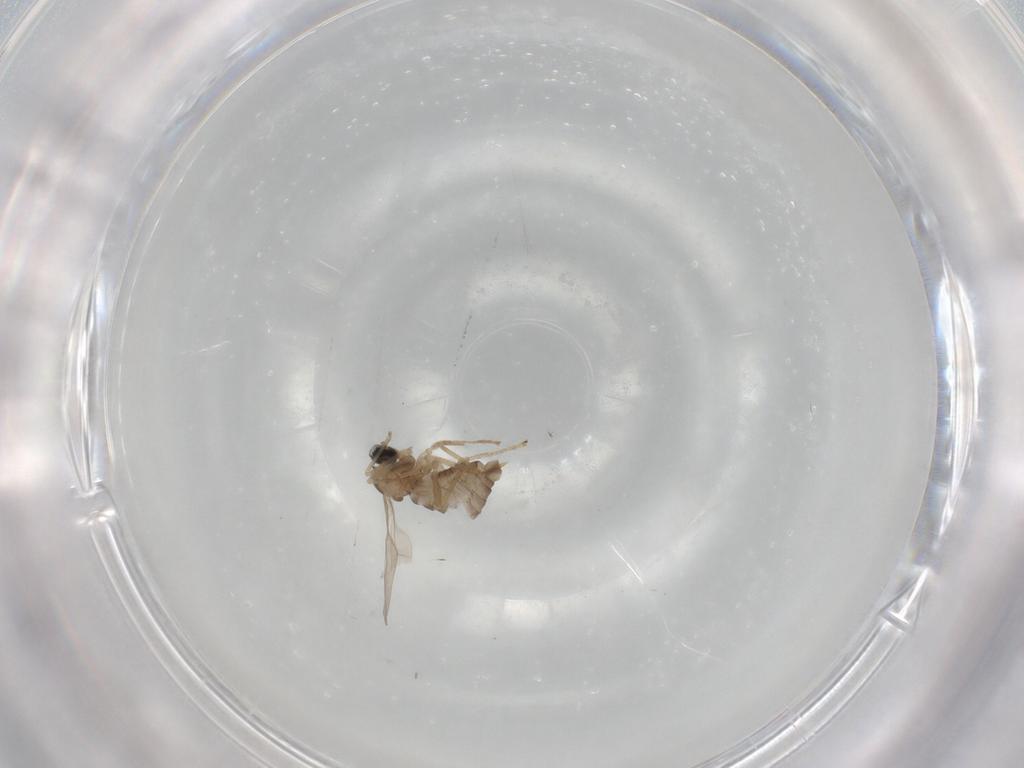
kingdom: Animalia
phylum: Arthropoda
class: Insecta
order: Diptera
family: Cecidomyiidae
